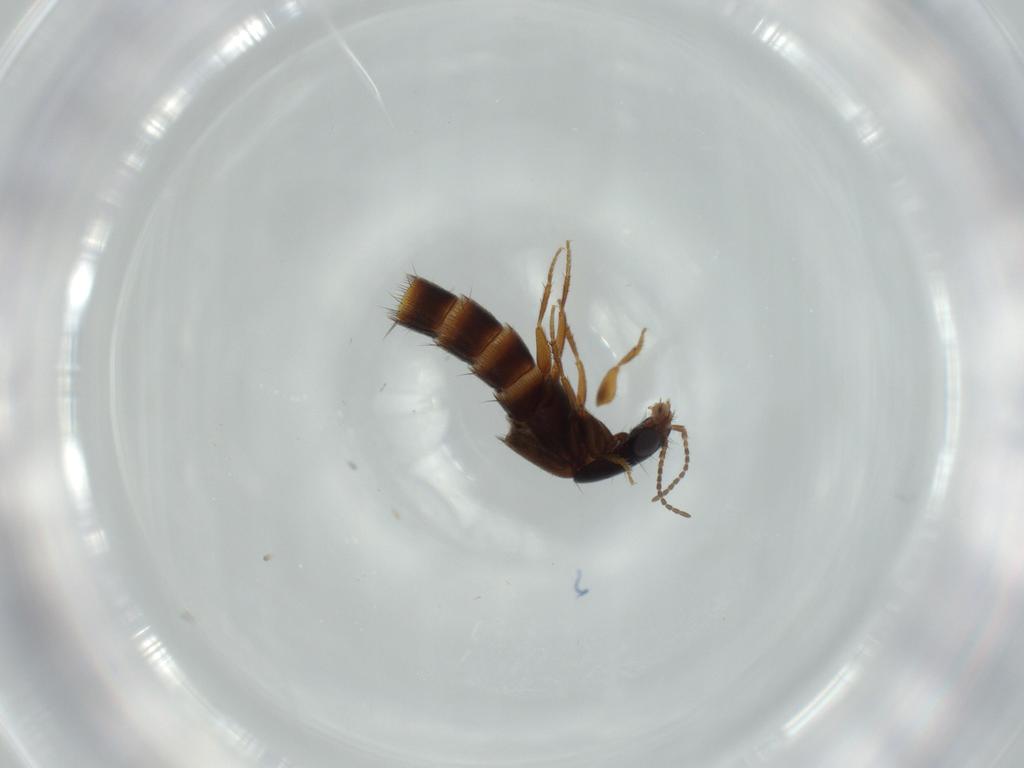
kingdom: Animalia
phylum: Arthropoda
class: Insecta
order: Coleoptera
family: Staphylinidae
